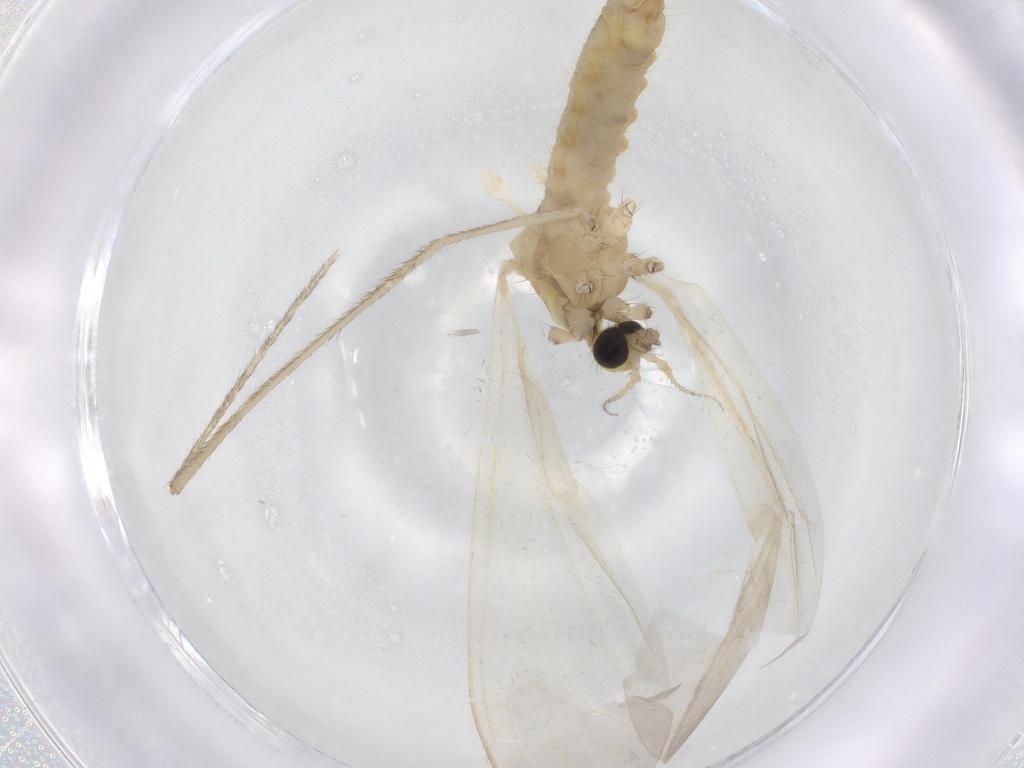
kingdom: Animalia
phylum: Arthropoda
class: Insecta
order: Diptera
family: Limoniidae
